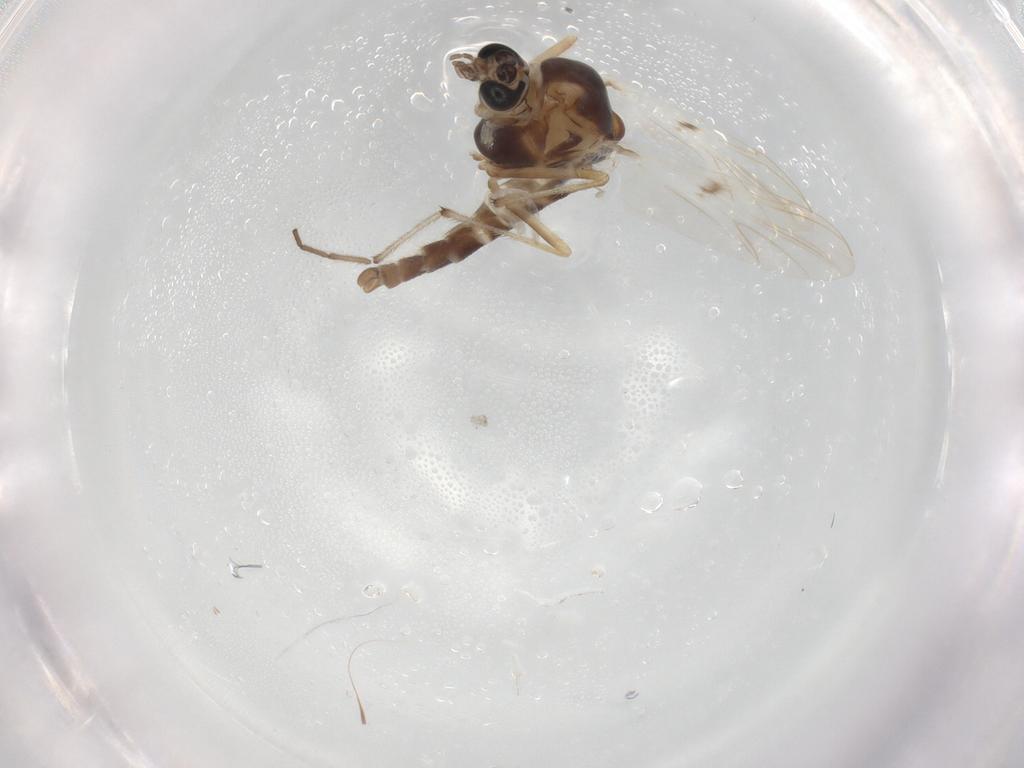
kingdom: Animalia
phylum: Arthropoda
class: Insecta
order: Diptera
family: Chironomidae
